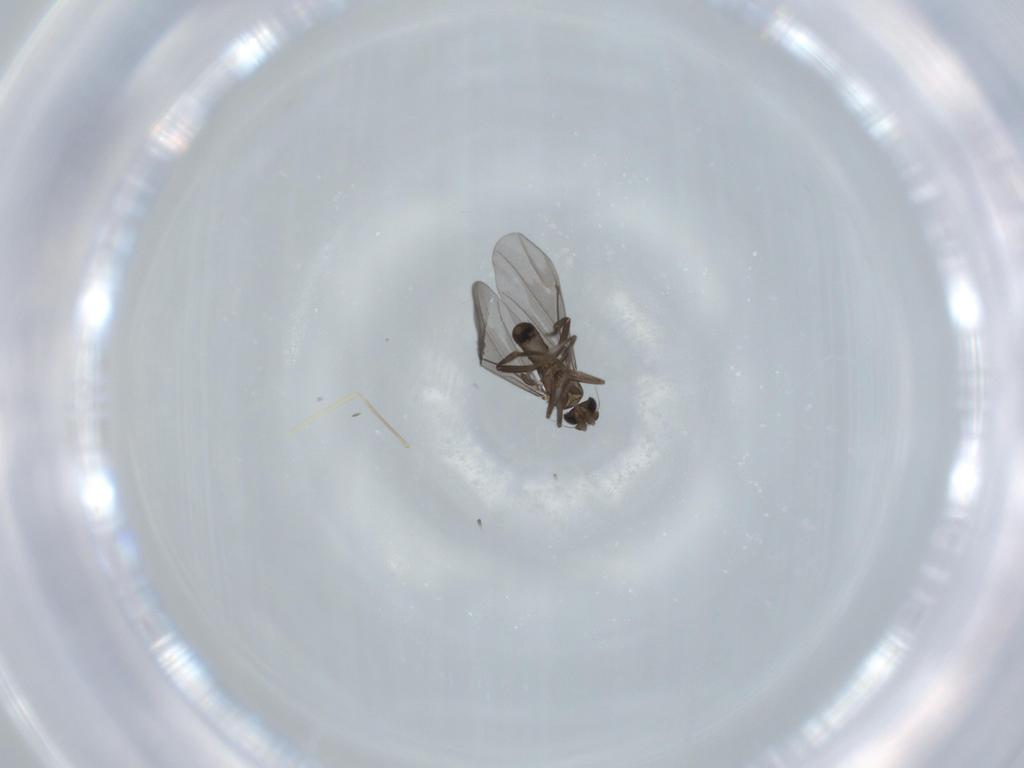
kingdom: Animalia
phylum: Arthropoda
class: Insecta
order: Diptera
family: Phoridae
